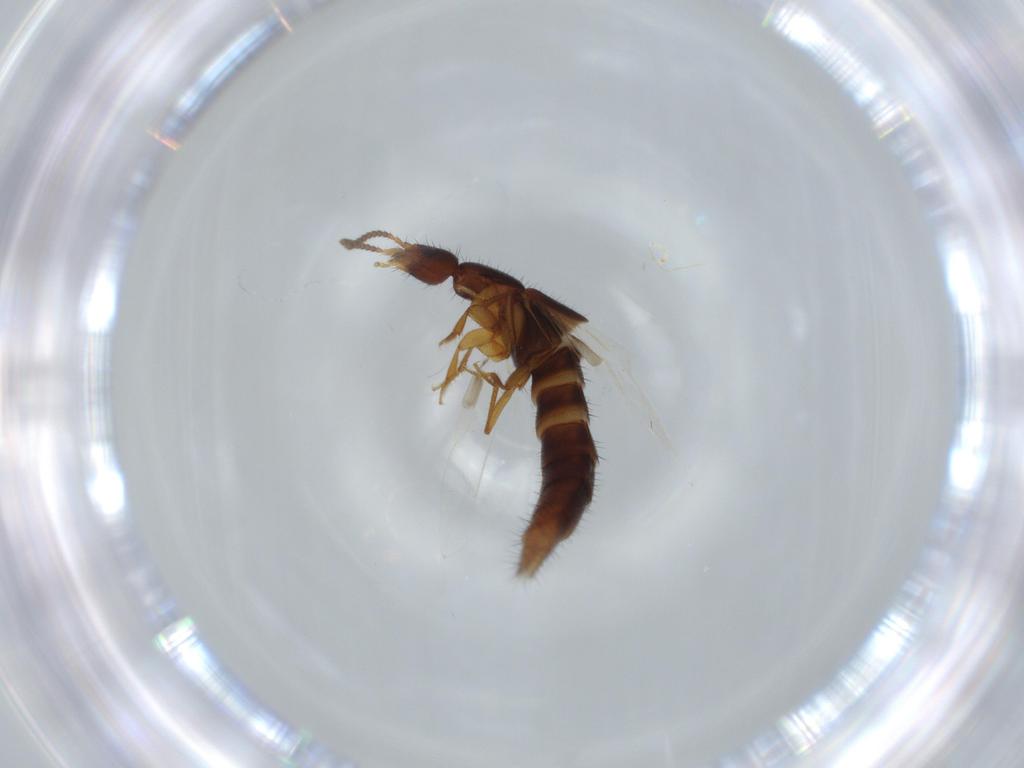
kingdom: Animalia
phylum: Arthropoda
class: Insecta
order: Coleoptera
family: Staphylinidae
